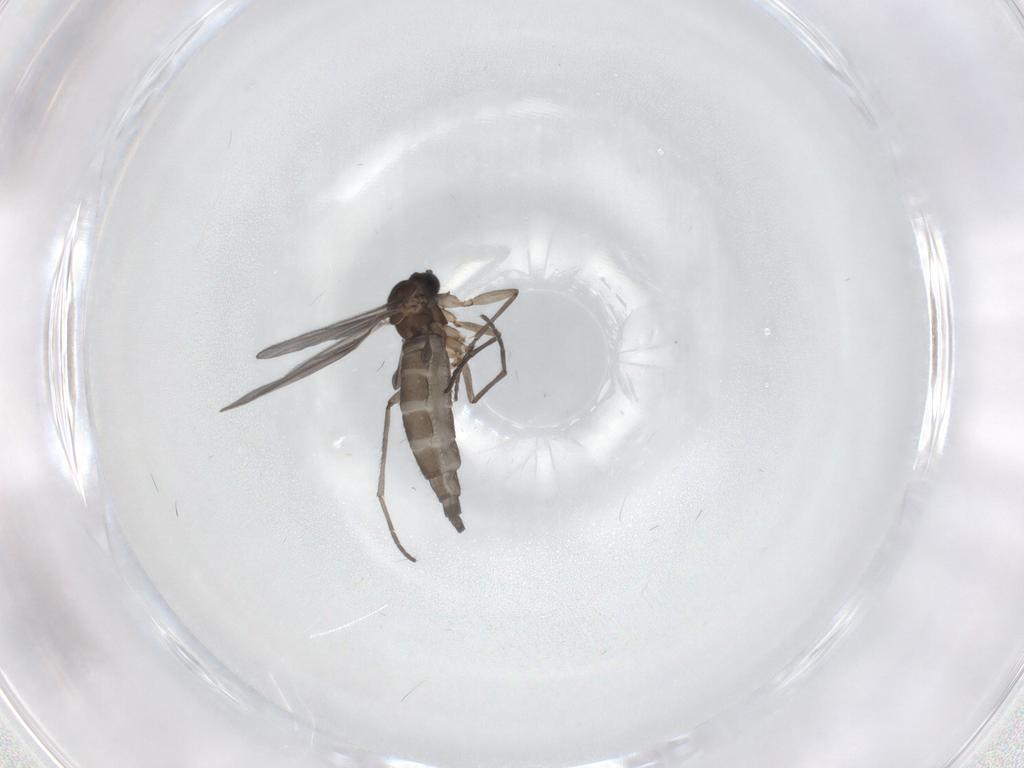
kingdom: Animalia
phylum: Arthropoda
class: Insecta
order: Diptera
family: Sciaridae
